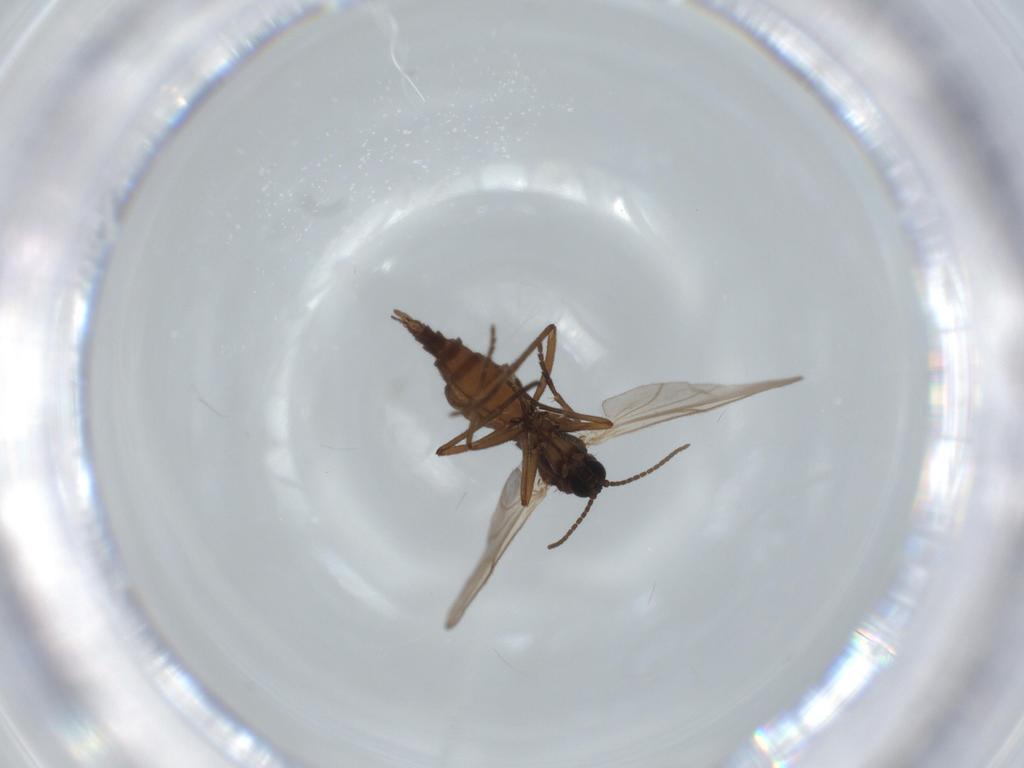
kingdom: Animalia
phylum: Arthropoda
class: Insecta
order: Diptera
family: Sciaridae
